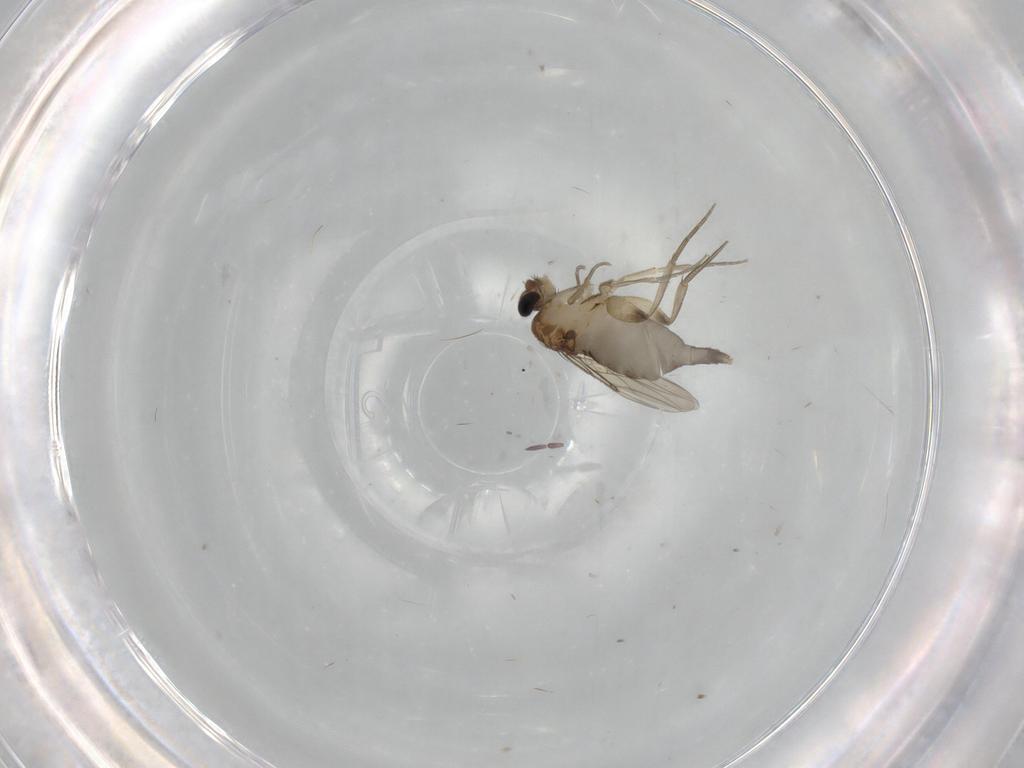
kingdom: Animalia
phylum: Arthropoda
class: Insecta
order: Diptera
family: Phoridae
